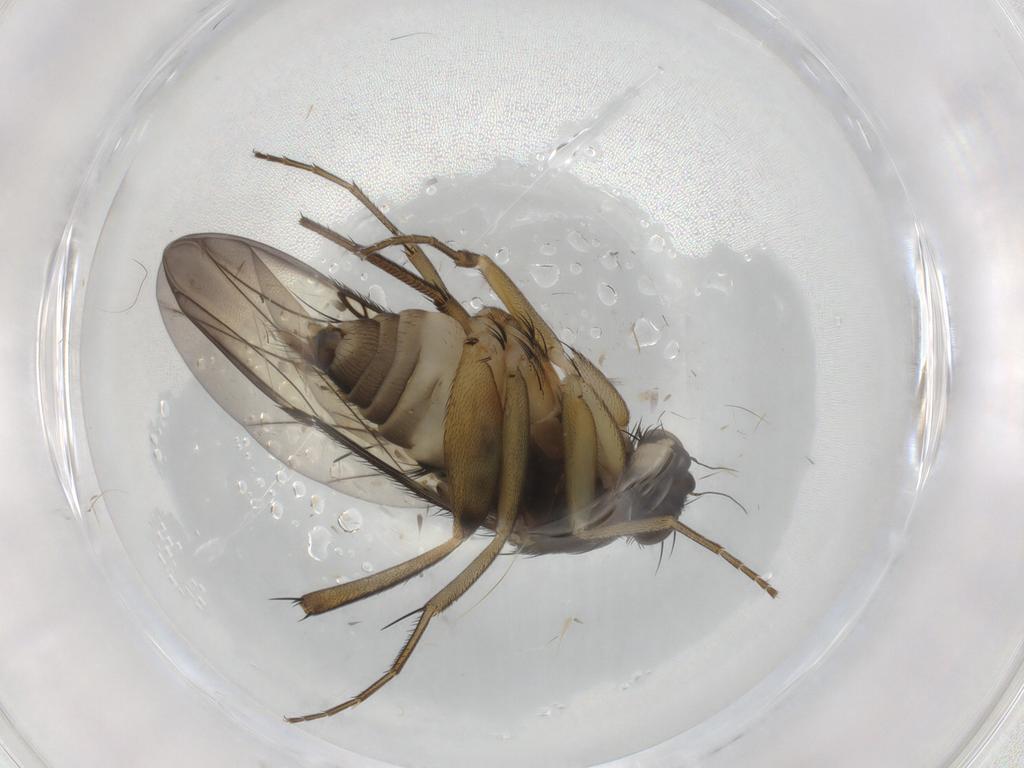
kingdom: Animalia
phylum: Arthropoda
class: Insecta
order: Diptera
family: Phoridae
